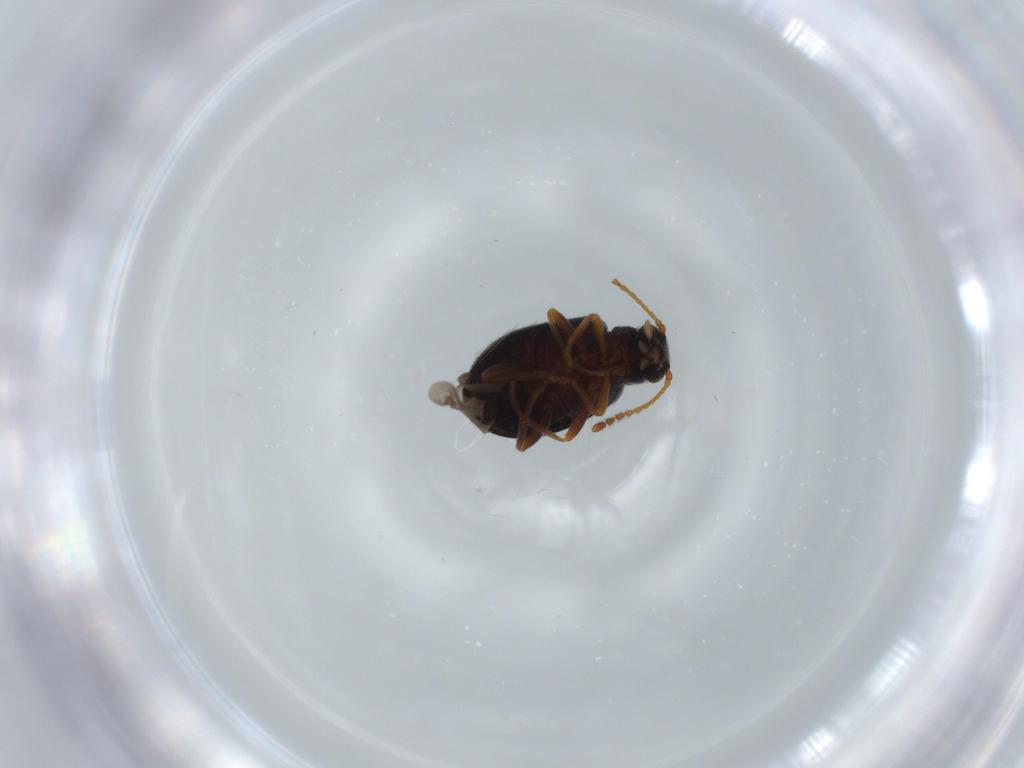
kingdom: Animalia
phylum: Arthropoda
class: Insecta
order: Coleoptera
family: Aderidae
